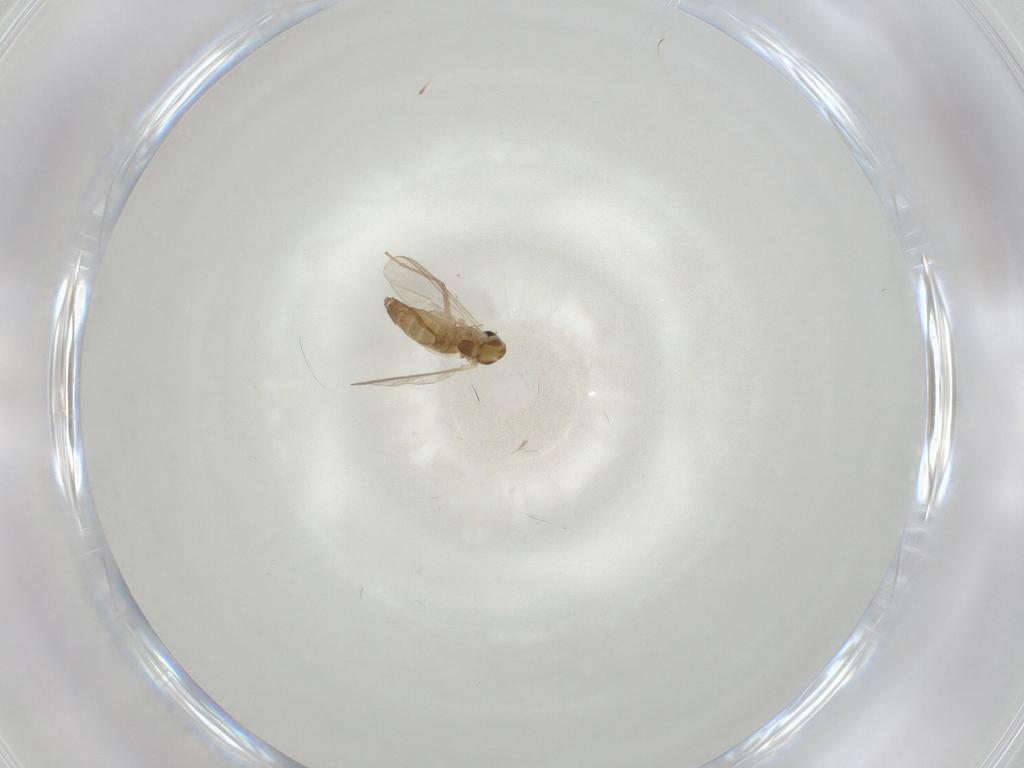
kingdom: Animalia
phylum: Arthropoda
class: Insecta
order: Diptera
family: Chironomidae
